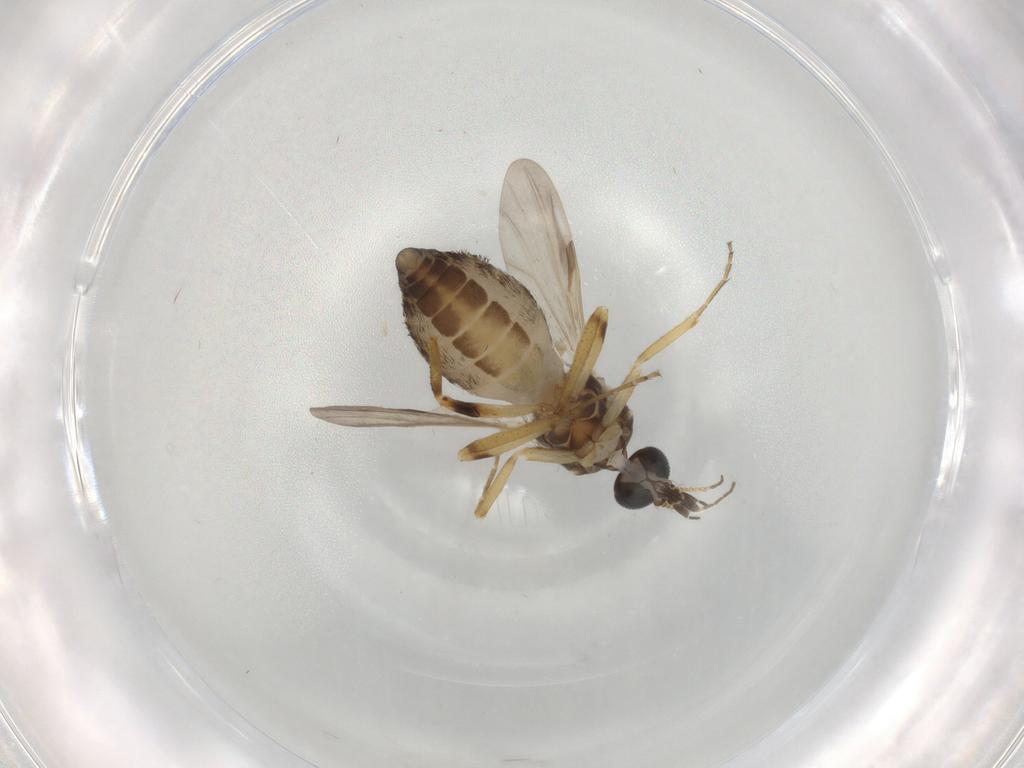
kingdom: Animalia
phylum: Arthropoda
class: Insecta
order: Diptera
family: Ceratopogonidae
